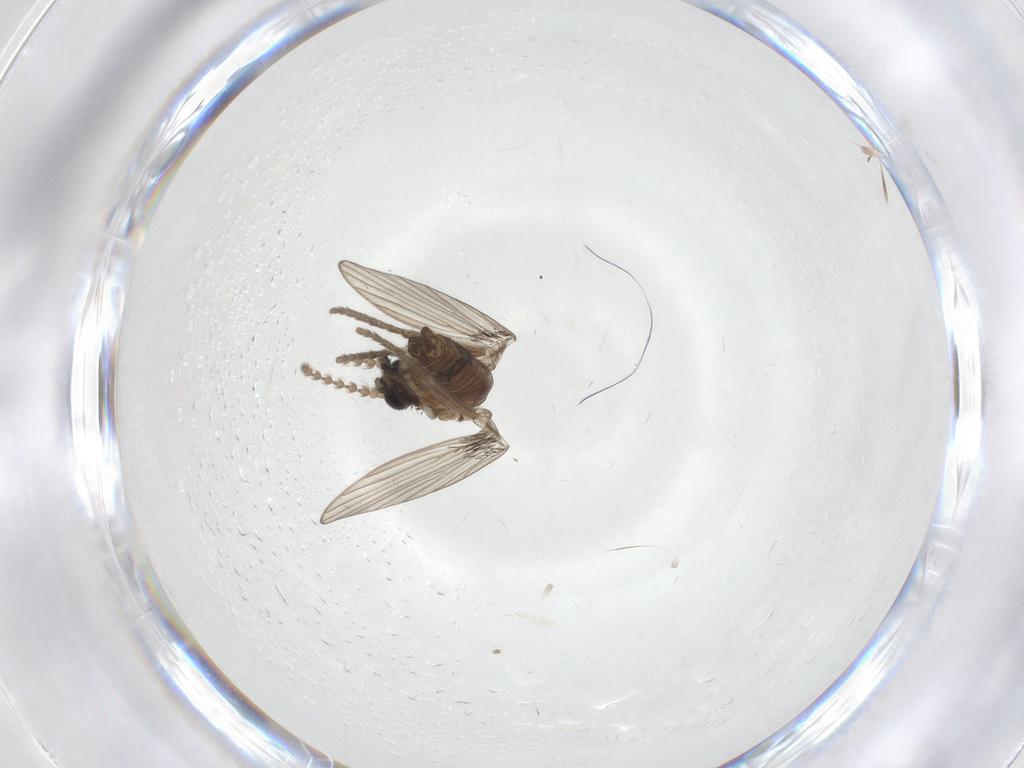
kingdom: Animalia
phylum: Arthropoda
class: Insecta
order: Diptera
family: Psychodidae
